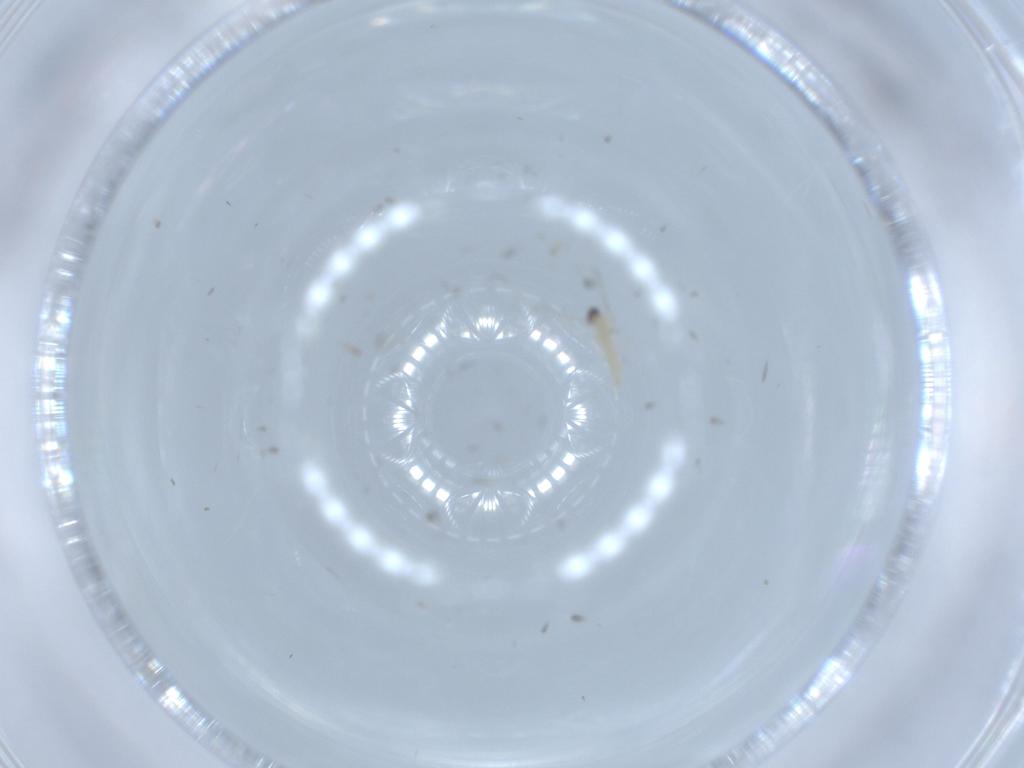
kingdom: Animalia
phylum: Arthropoda
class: Insecta
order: Diptera
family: Cecidomyiidae
